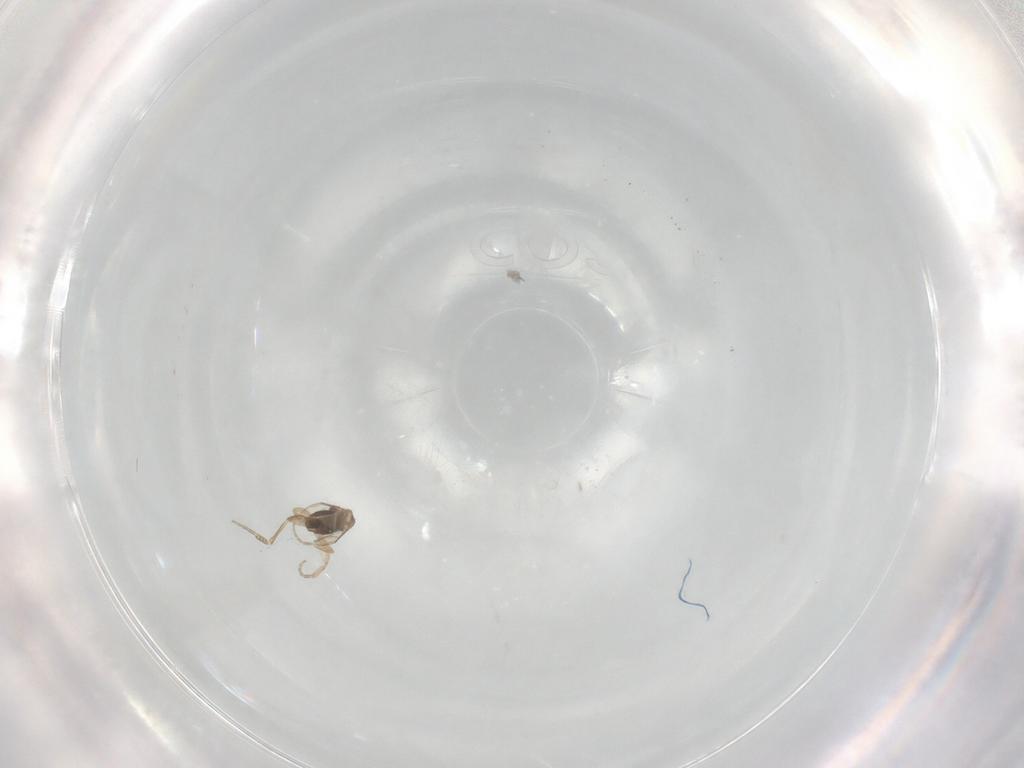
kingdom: Animalia
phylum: Arthropoda
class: Insecta
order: Diptera
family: Phoridae
